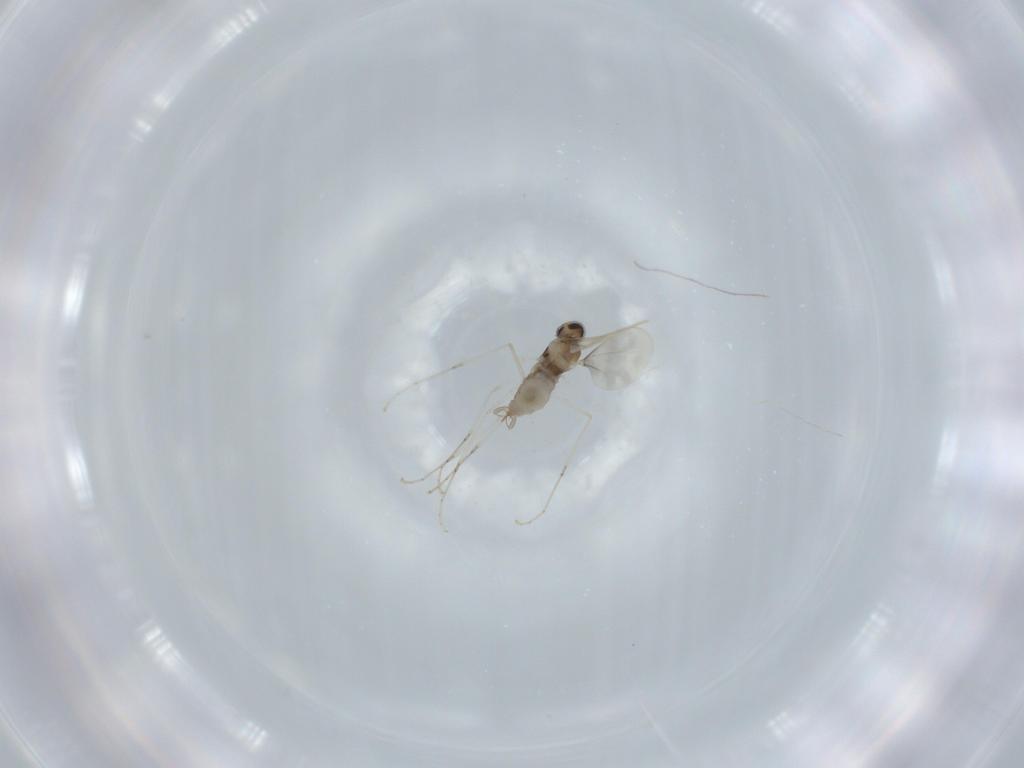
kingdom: Animalia
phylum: Arthropoda
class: Insecta
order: Diptera
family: Cecidomyiidae
